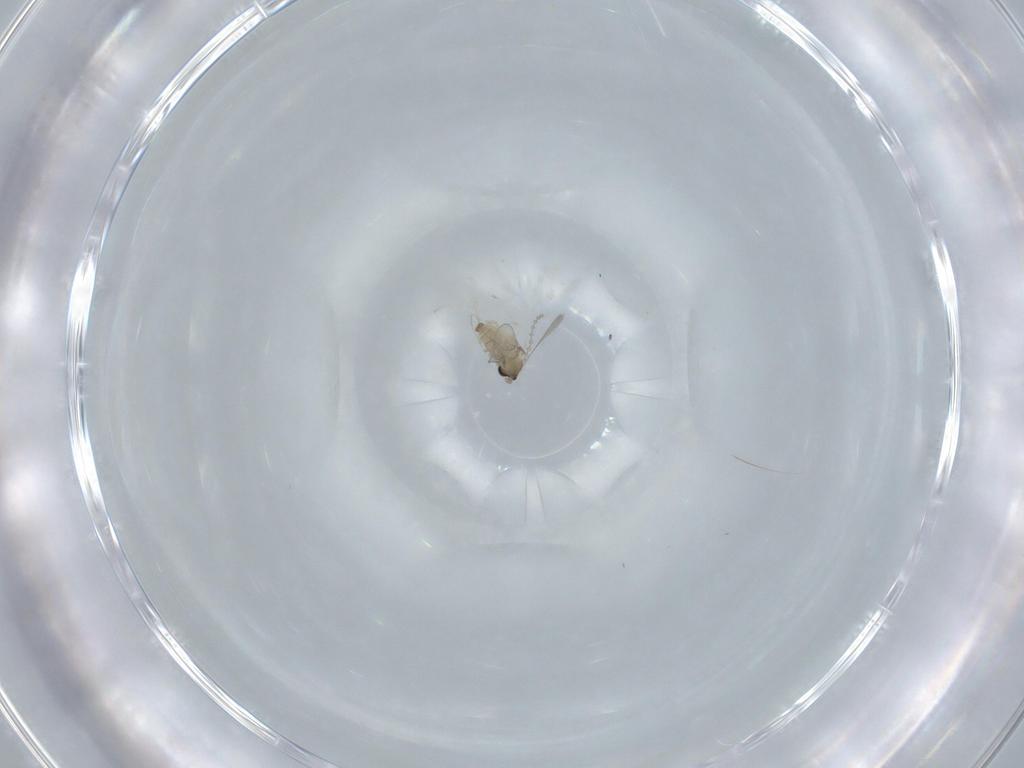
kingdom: Animalia
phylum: Arthropoda
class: Insecta
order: Diptera
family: Cecidomyiidae
